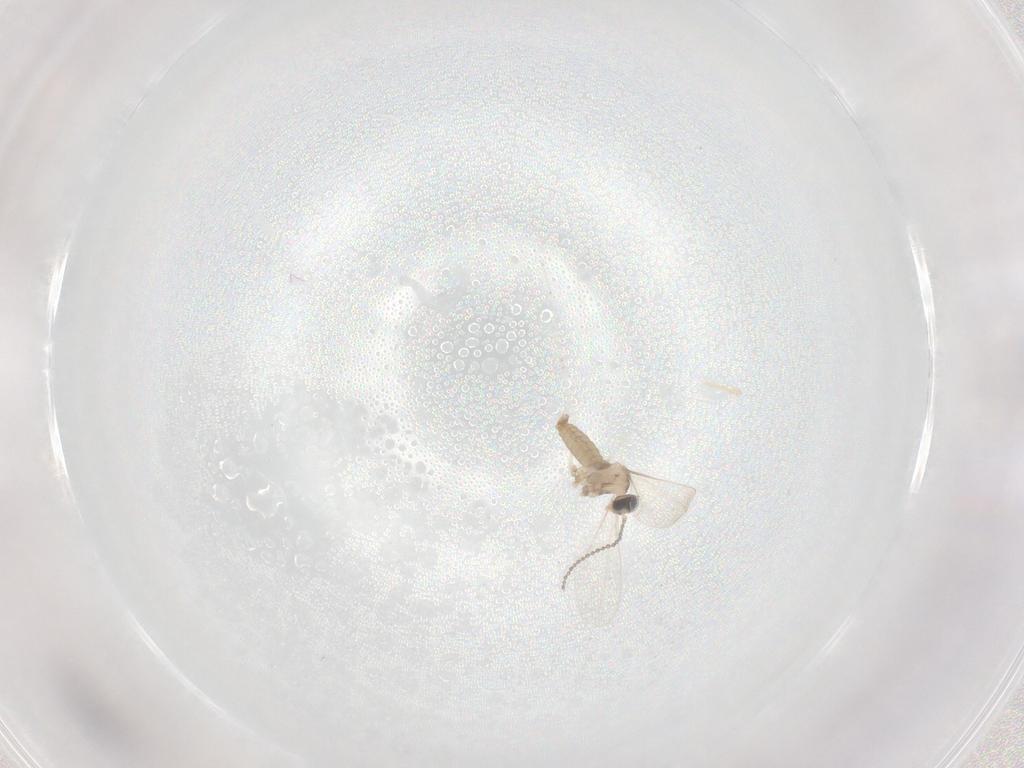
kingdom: Animalia
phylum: Arthropoda
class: Insecta
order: Diptera
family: Cecidomyiidae
